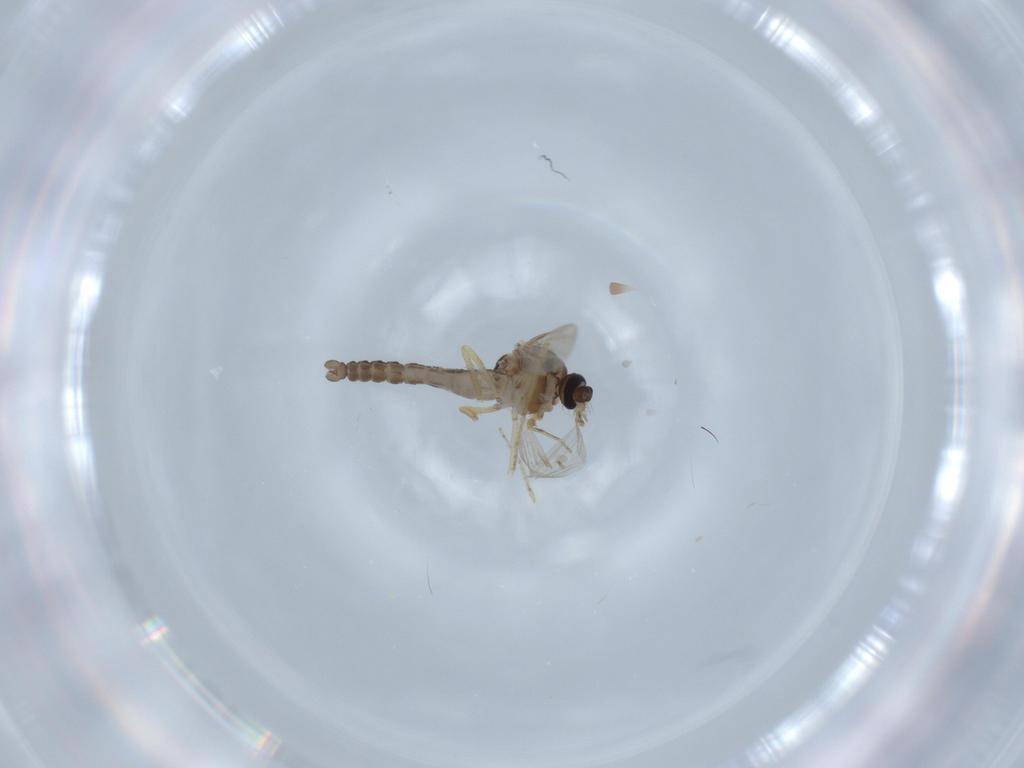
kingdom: Animalia
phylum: Arthropoda
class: Insecta
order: Diptera
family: Ceratopogonidae
